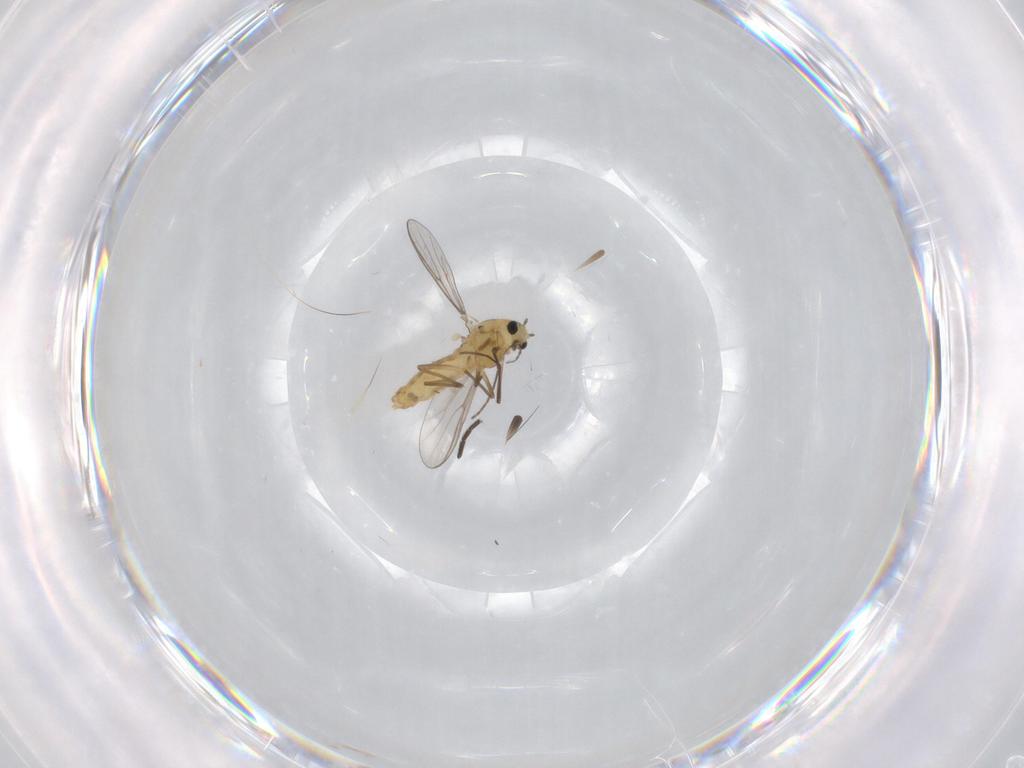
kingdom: Animalia
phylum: Arthropoda
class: Insecta
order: Diptera
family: Chironomidae
